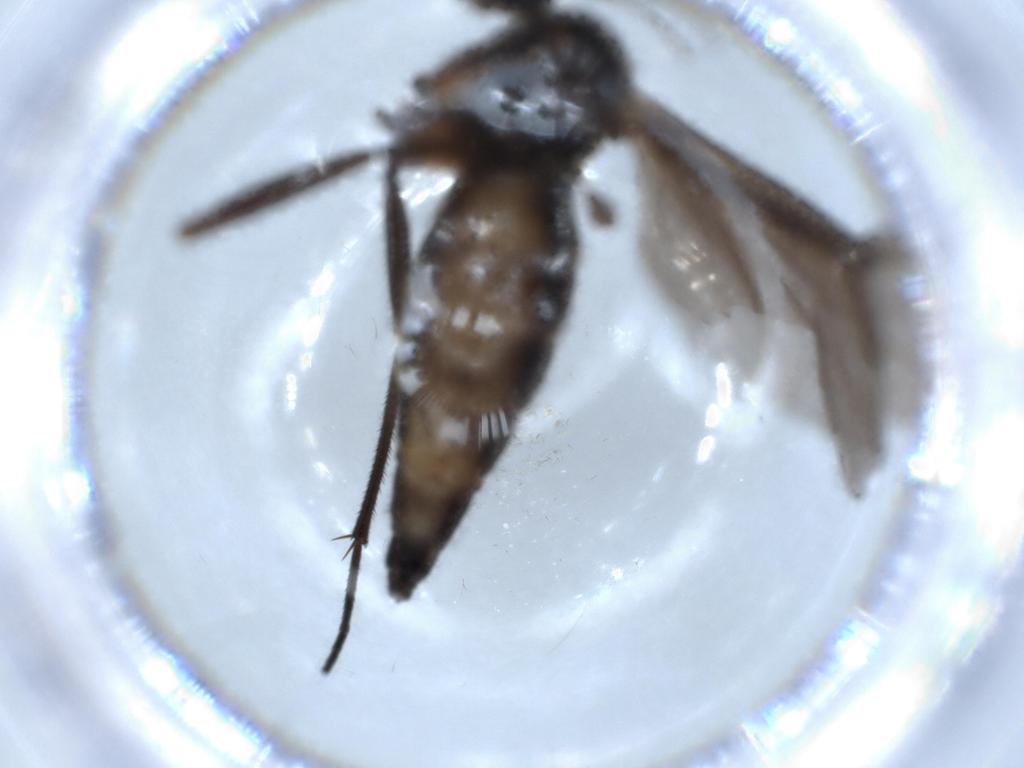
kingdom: Animalia
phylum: Arthropoda
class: Insecta
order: Diptera
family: Sciaridae
